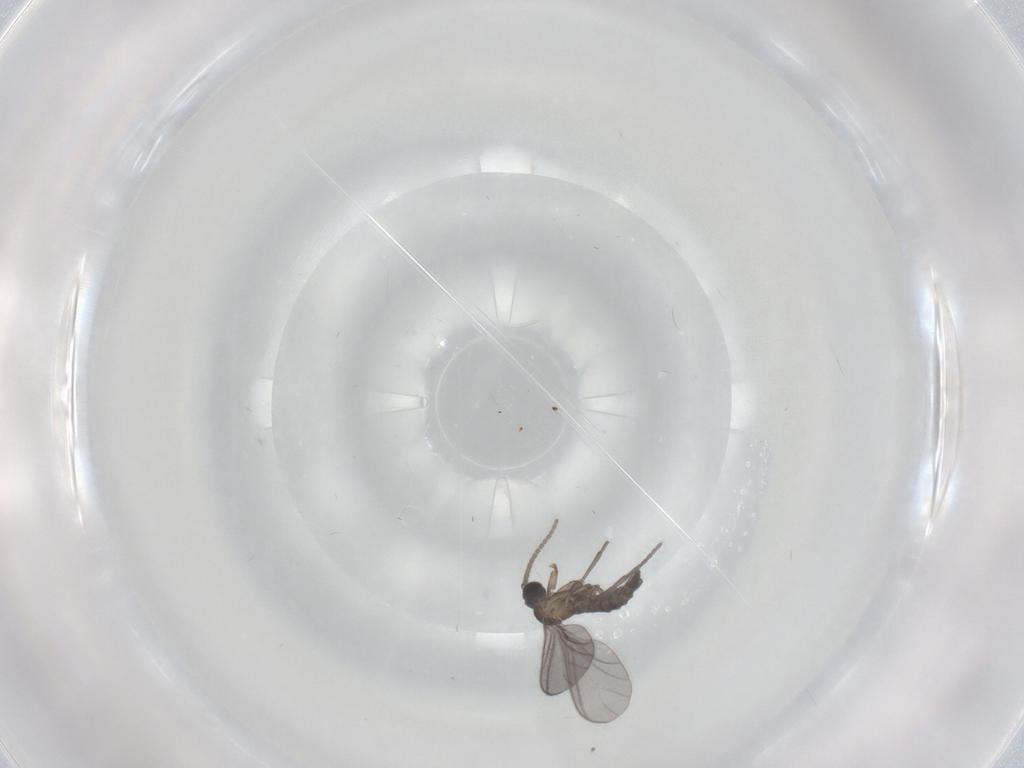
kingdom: Animalia
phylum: Arthropoda
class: Insecta
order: Diptera
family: Sciaridae
